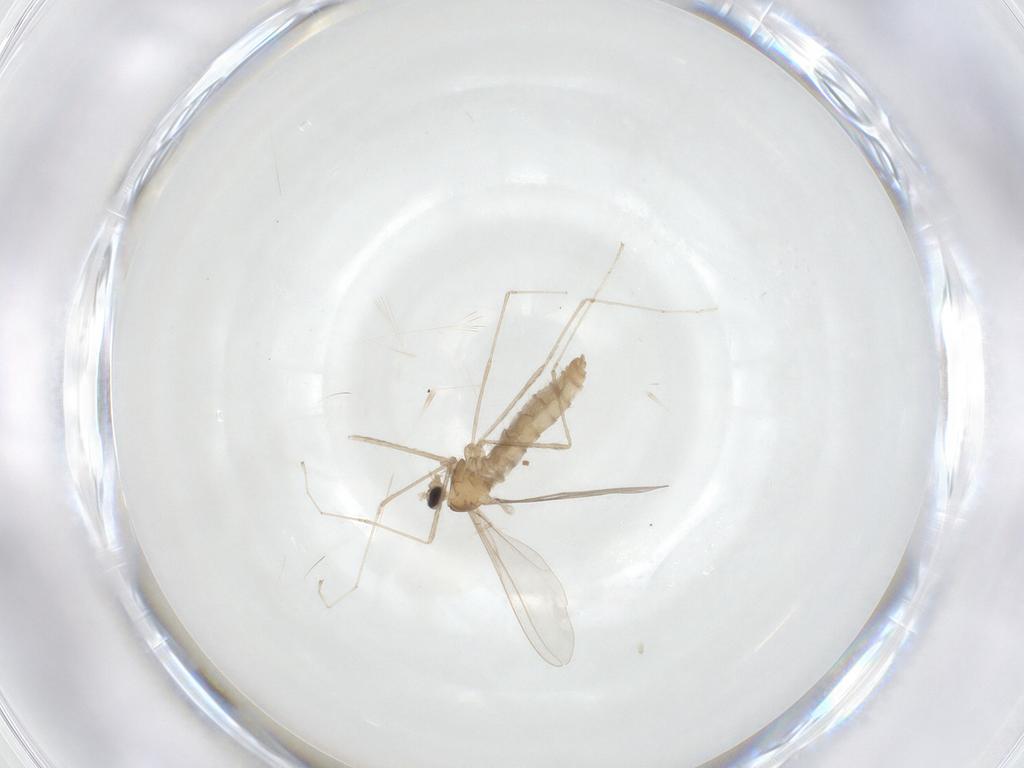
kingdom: Animalia
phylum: Arthropoda
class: Insecta
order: Diptera
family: Cecidomyiidae
